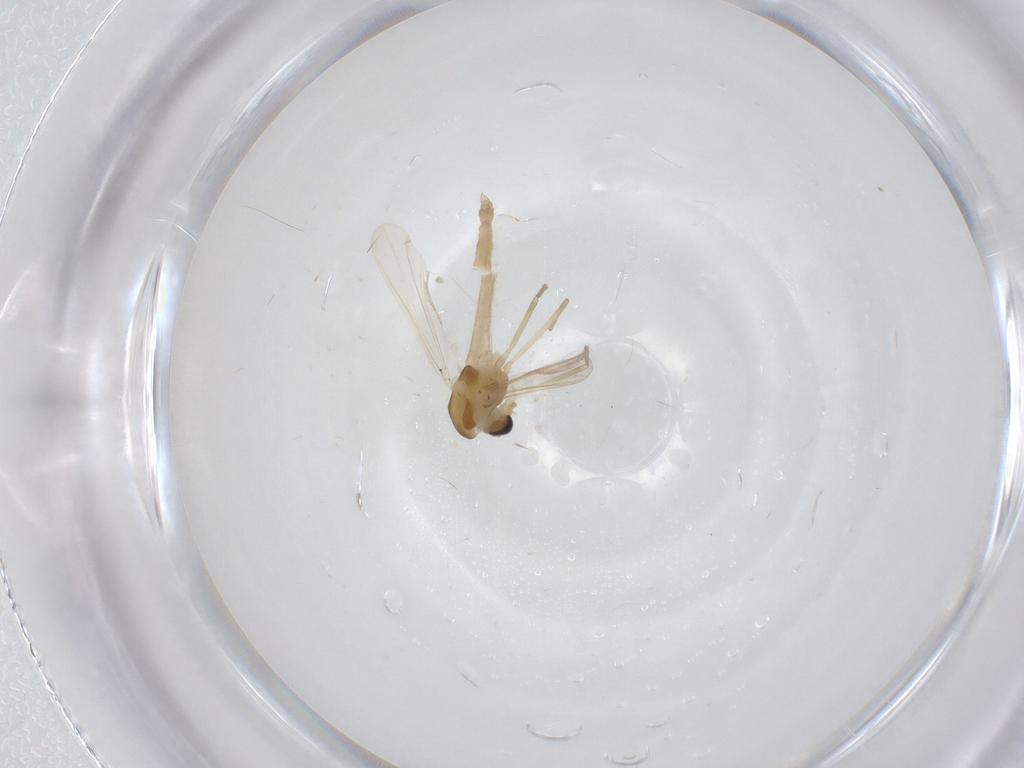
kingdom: Animalia
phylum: Arthropoda
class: Insecta
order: Diptera
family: Chironomidae
